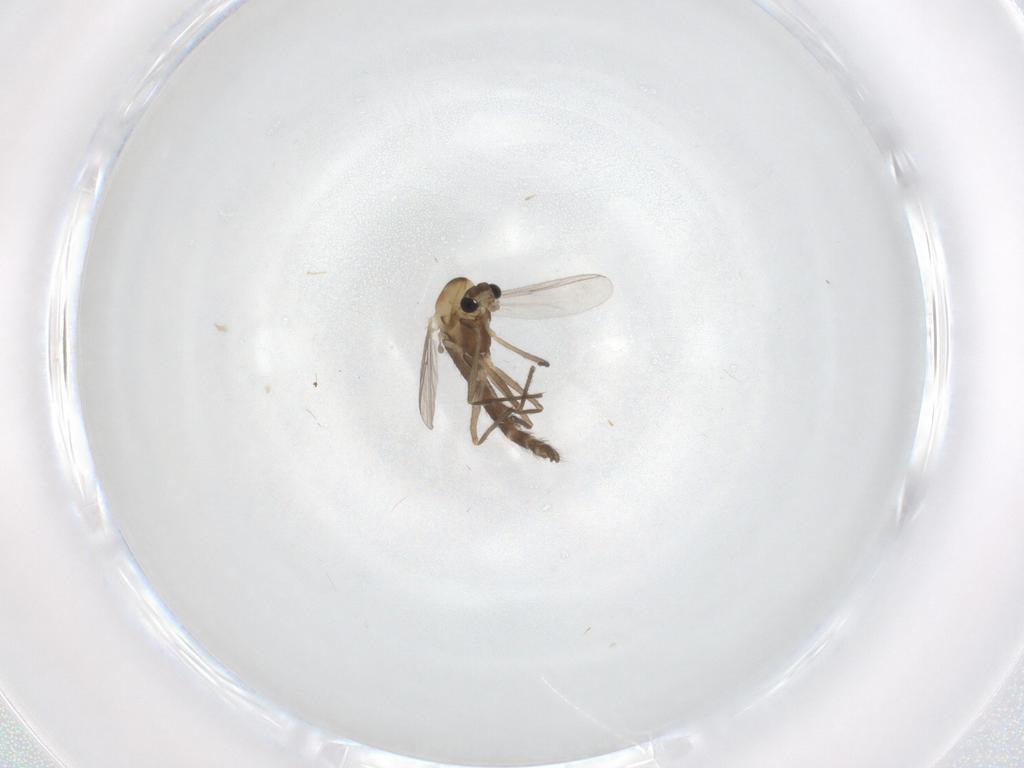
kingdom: Animalia
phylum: Arthropoda
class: Insecta
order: Diptera
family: Chironomidae
